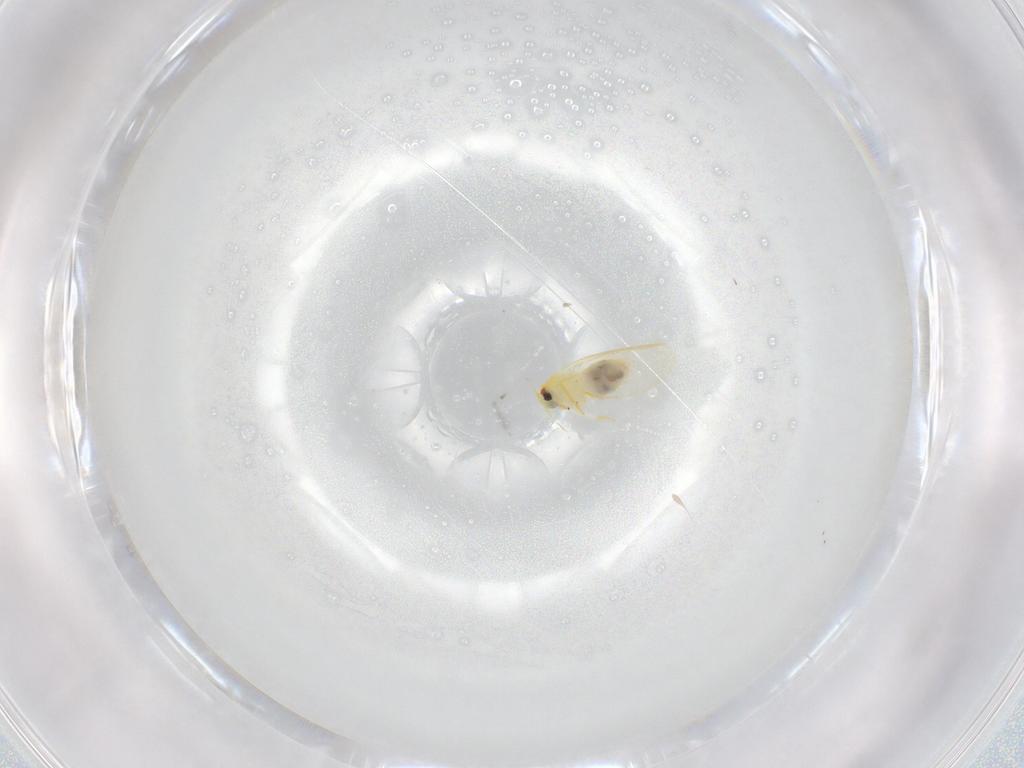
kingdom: Animalia
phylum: Arthropoda
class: Insecta
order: Hemiptera
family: Aleyrodidae
